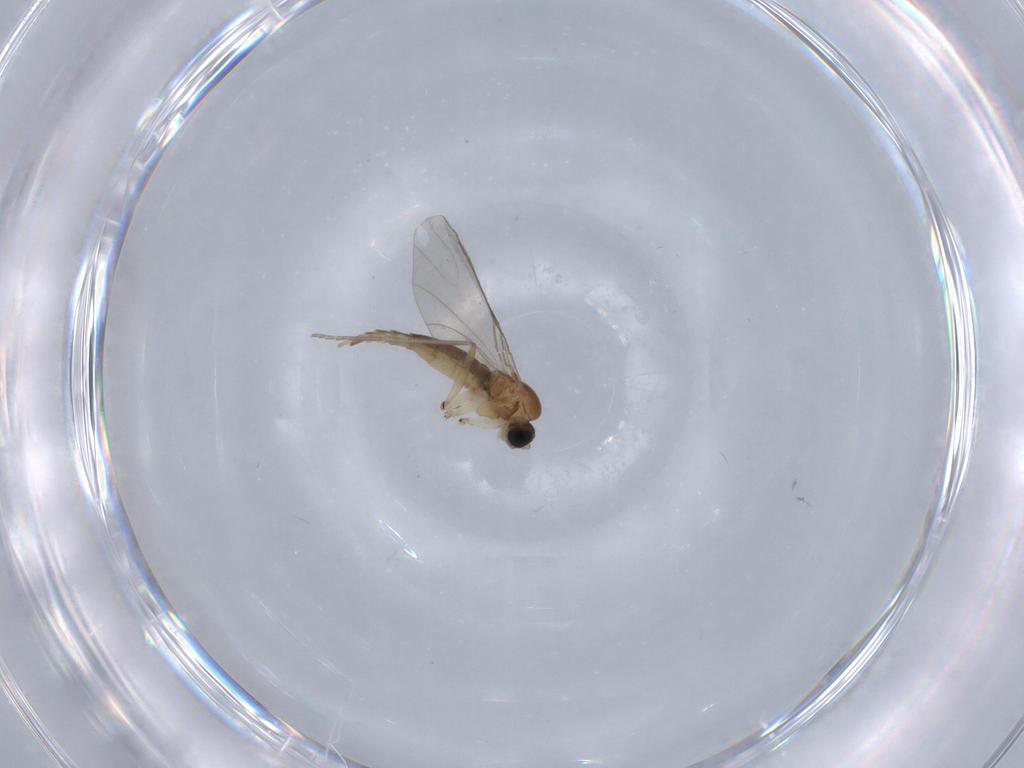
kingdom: Animalia
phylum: Arthropoda
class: Insecta
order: Diptera
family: Sciaridae
